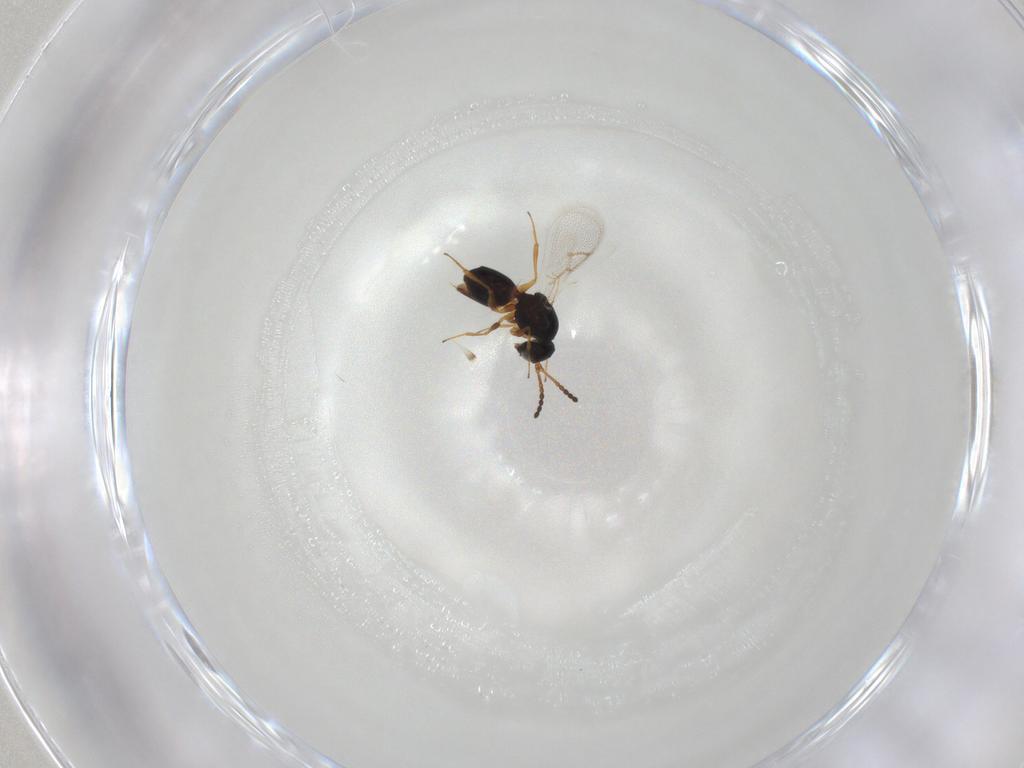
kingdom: Animalia
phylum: Arthropoda
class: Insecta
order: Hymenoptera
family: Figitidae
